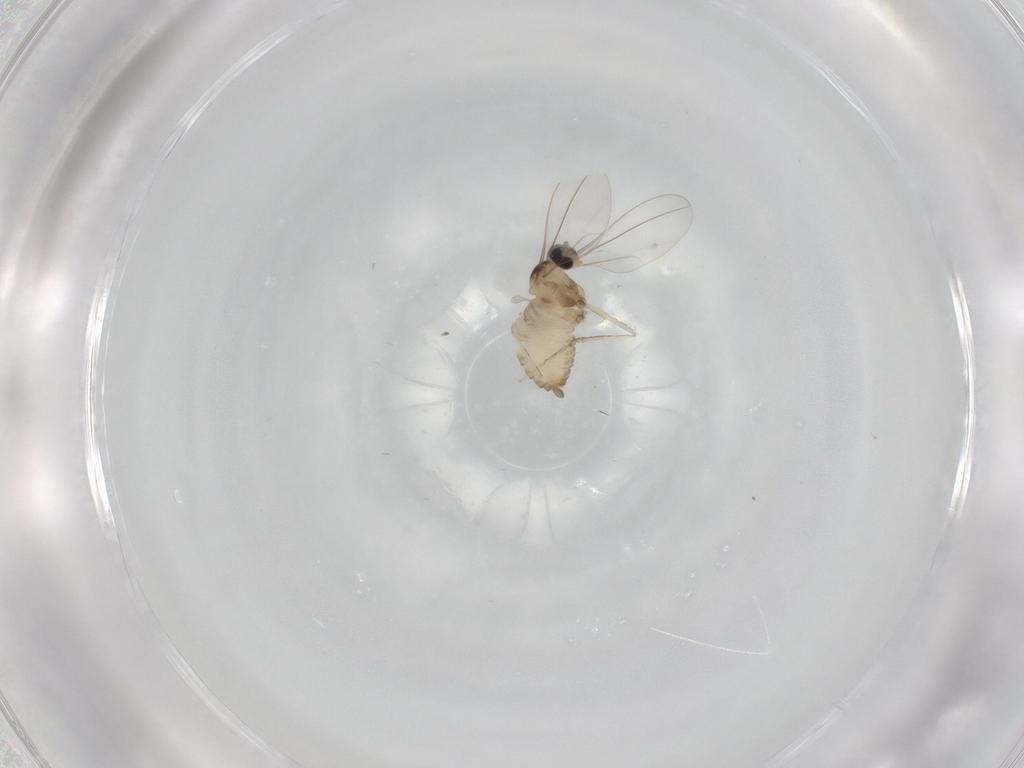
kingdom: Animalia
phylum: Arthropoda
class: Insecta
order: Diptera
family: Cecidomyiidae
